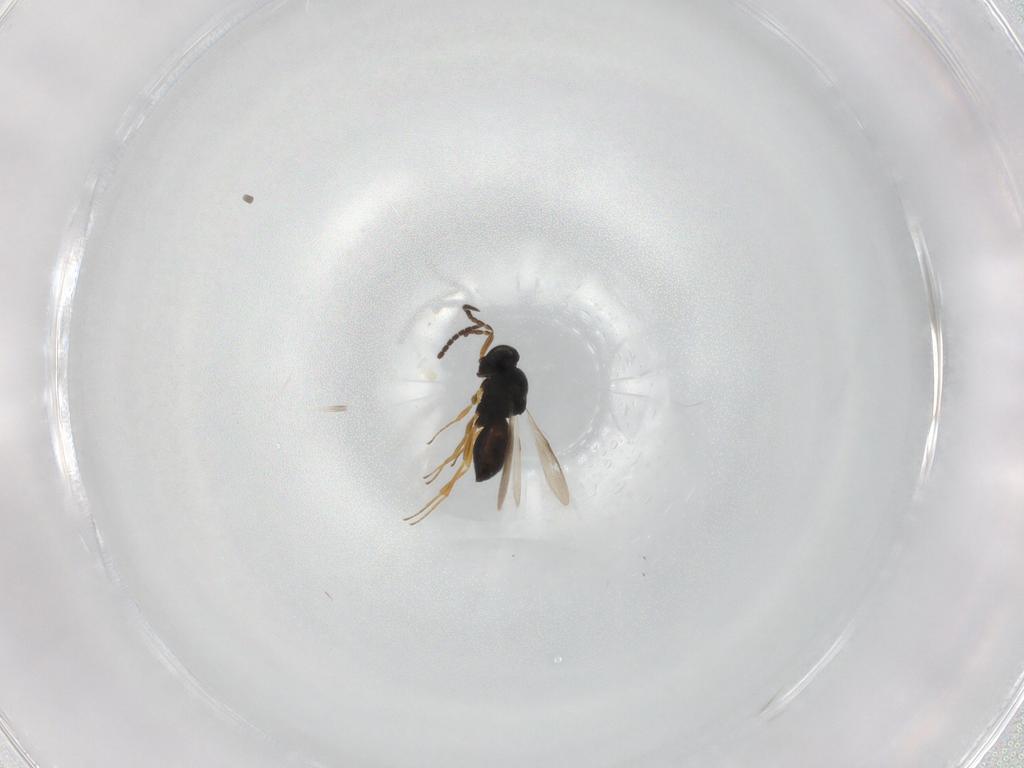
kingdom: Animalia
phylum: Arthropoda
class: Insecta
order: Hymenoptera
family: Scelionidae
